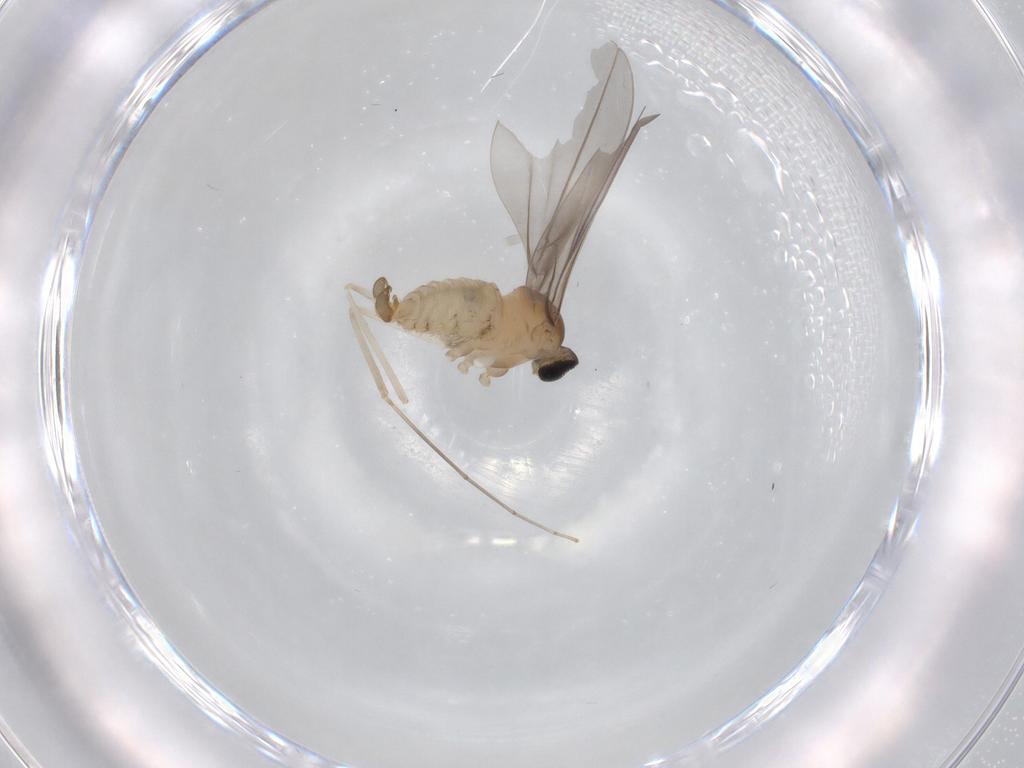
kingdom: Animalia
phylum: Arthropoda
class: Insecta
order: Diptera
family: Cecidomyiidae
